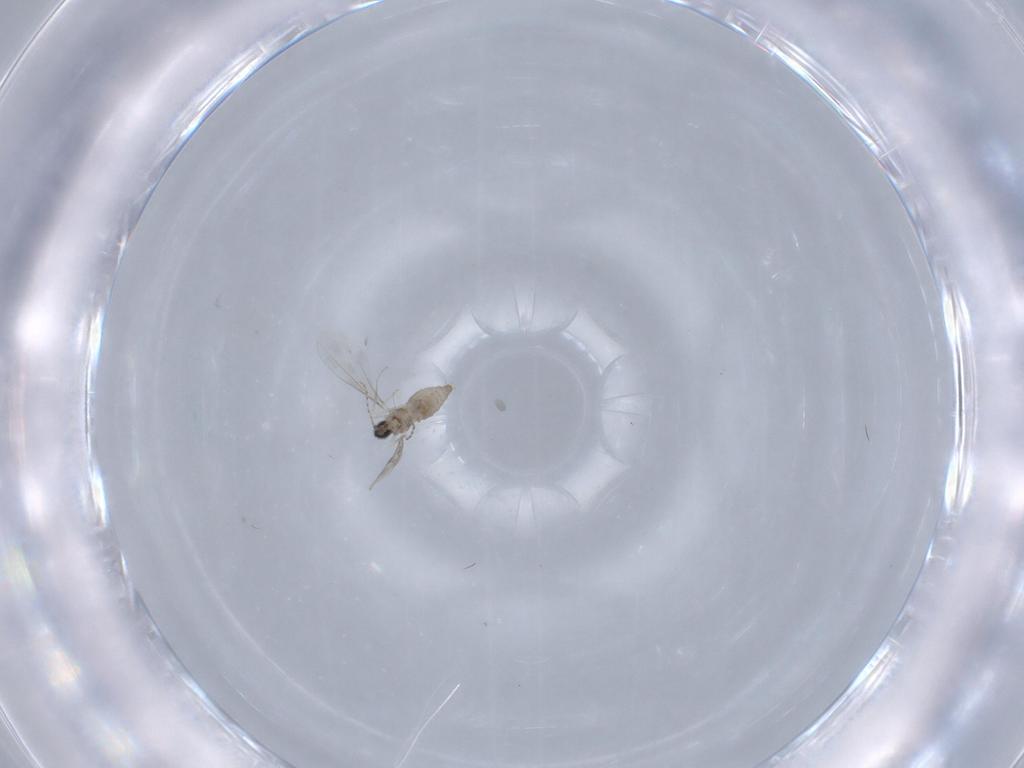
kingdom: Animalia
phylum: Arthropoda
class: Insecta
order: Diptera
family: Cecidomyiidae
